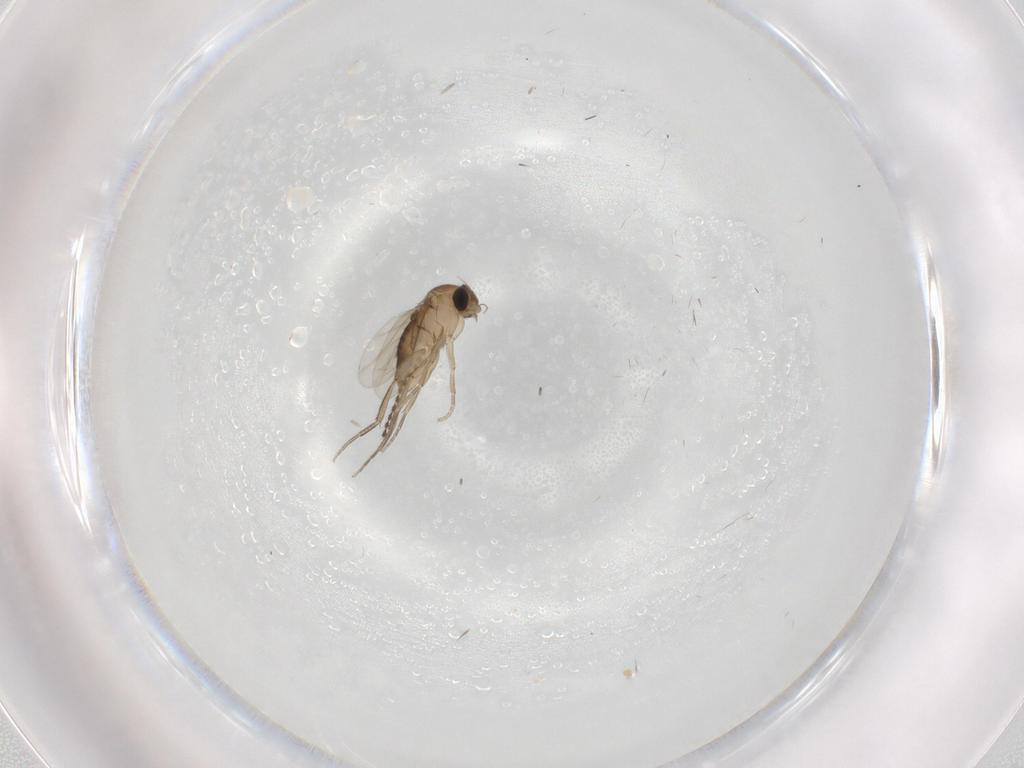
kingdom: Animalia
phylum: Arthropoda
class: Insecta
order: Diptera
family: Phoridae
